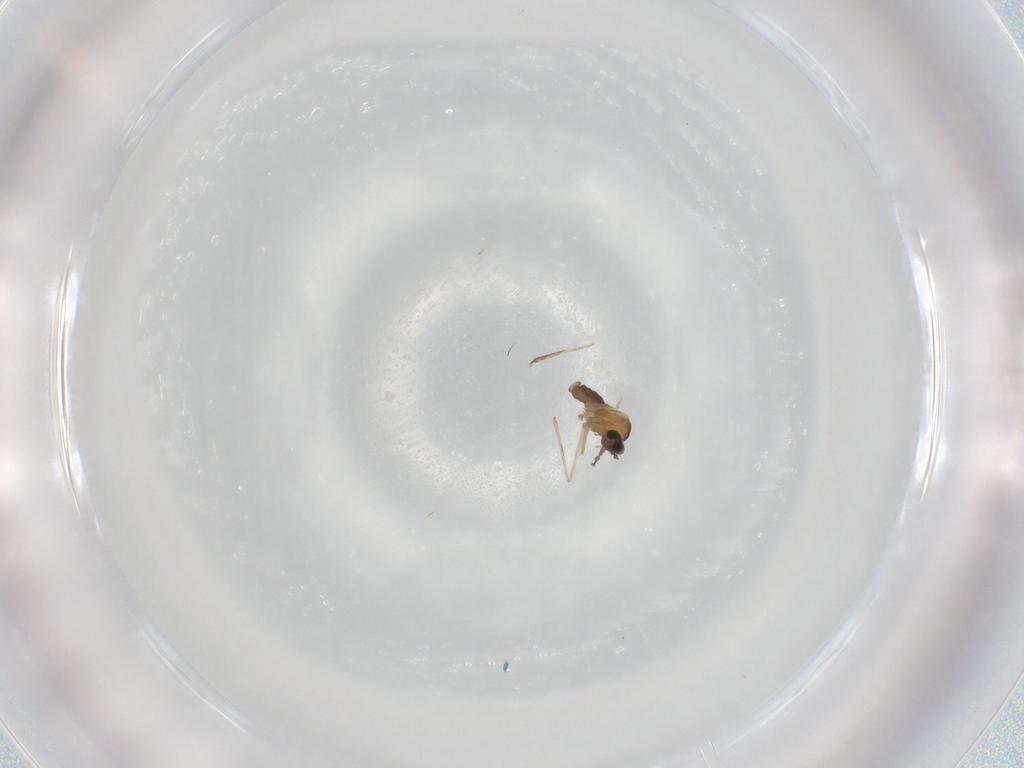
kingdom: Animalia
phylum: Arthropoda
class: Insecta
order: Diptera
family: Cecidomyiidae
